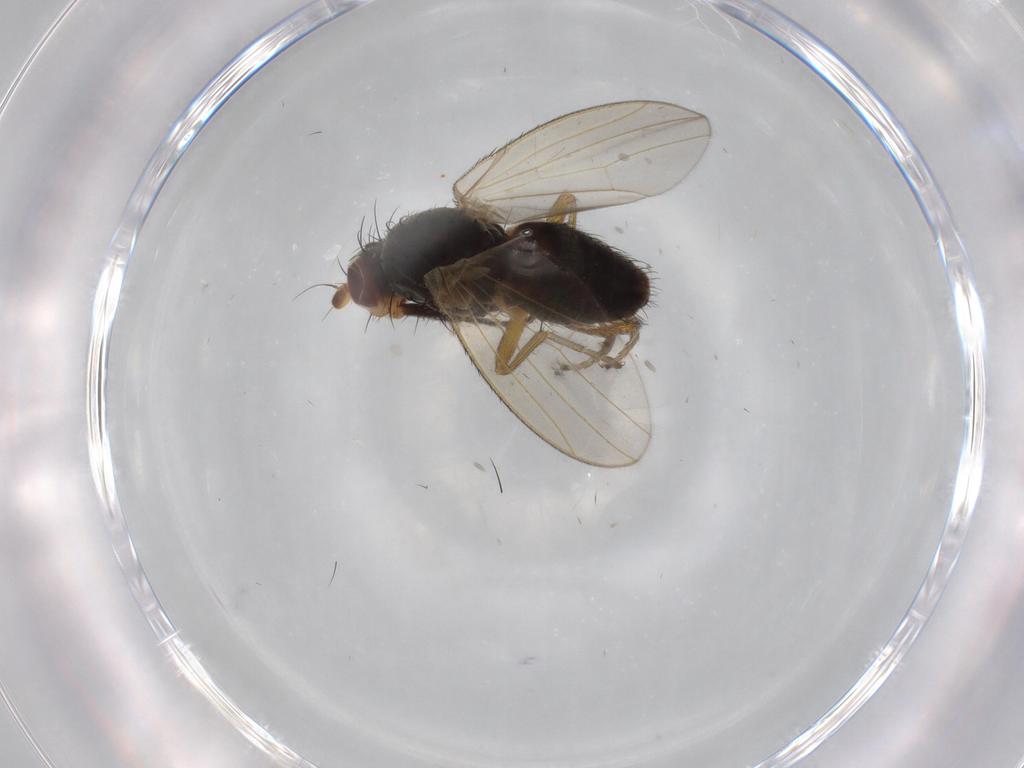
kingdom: Animalia
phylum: Arthropoda
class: Insecta
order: Diptera
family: Ulidiidae
